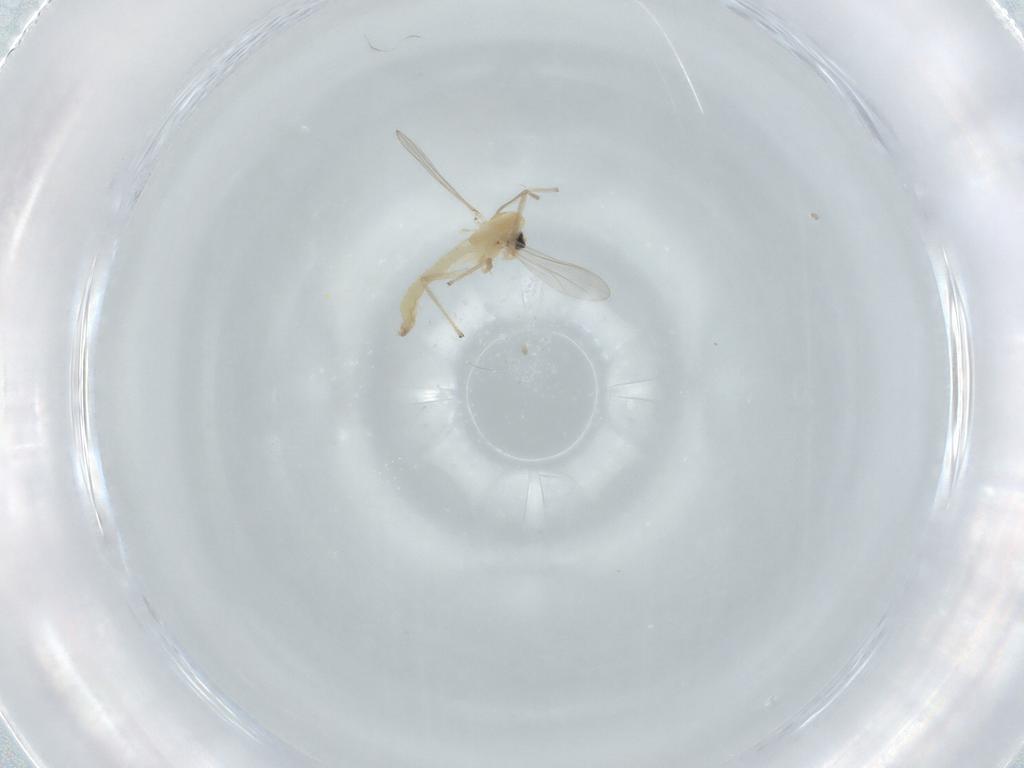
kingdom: Animalia
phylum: Arthropoda
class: Insecta
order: Diptera
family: Chironomidae
